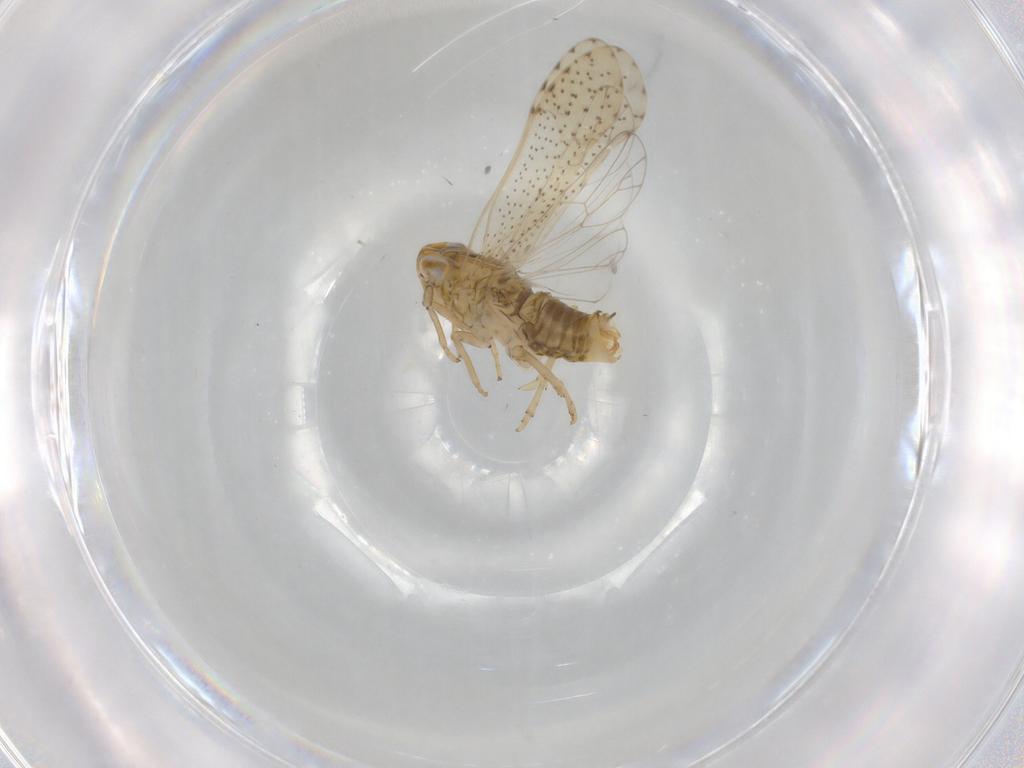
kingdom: Animalia
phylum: Arthropoda
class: Insecta
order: Hemiptera
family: Delphacidae
